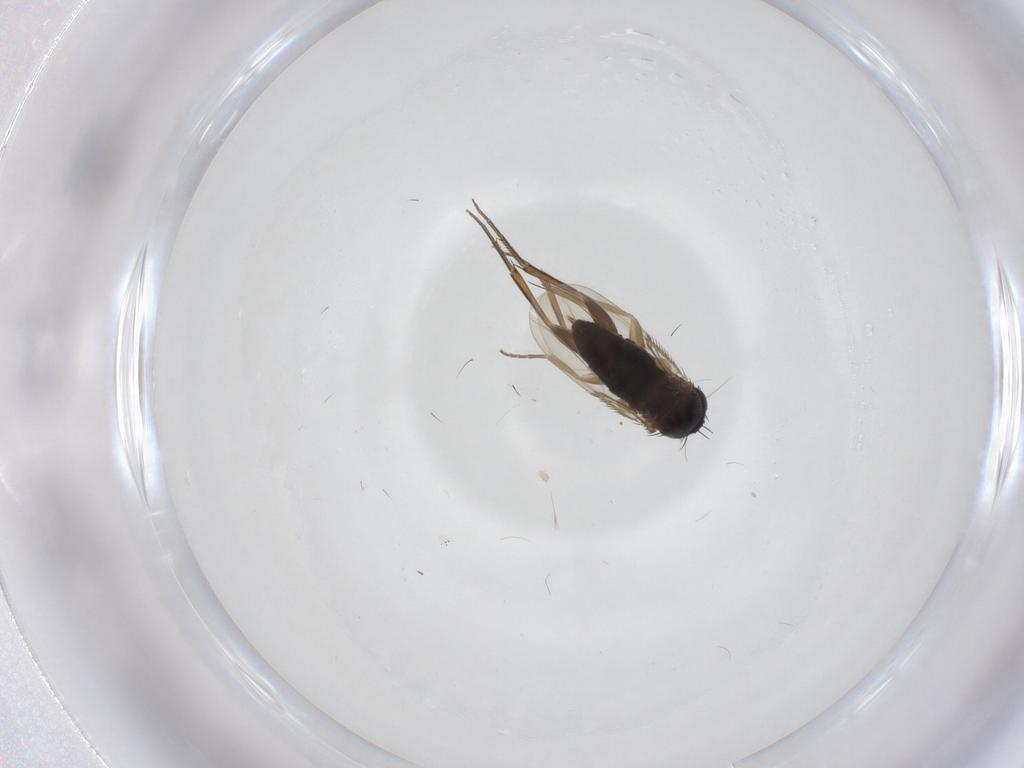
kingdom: Animalia
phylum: Arthropoda
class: Insecta
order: Diptera
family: Phoridae
